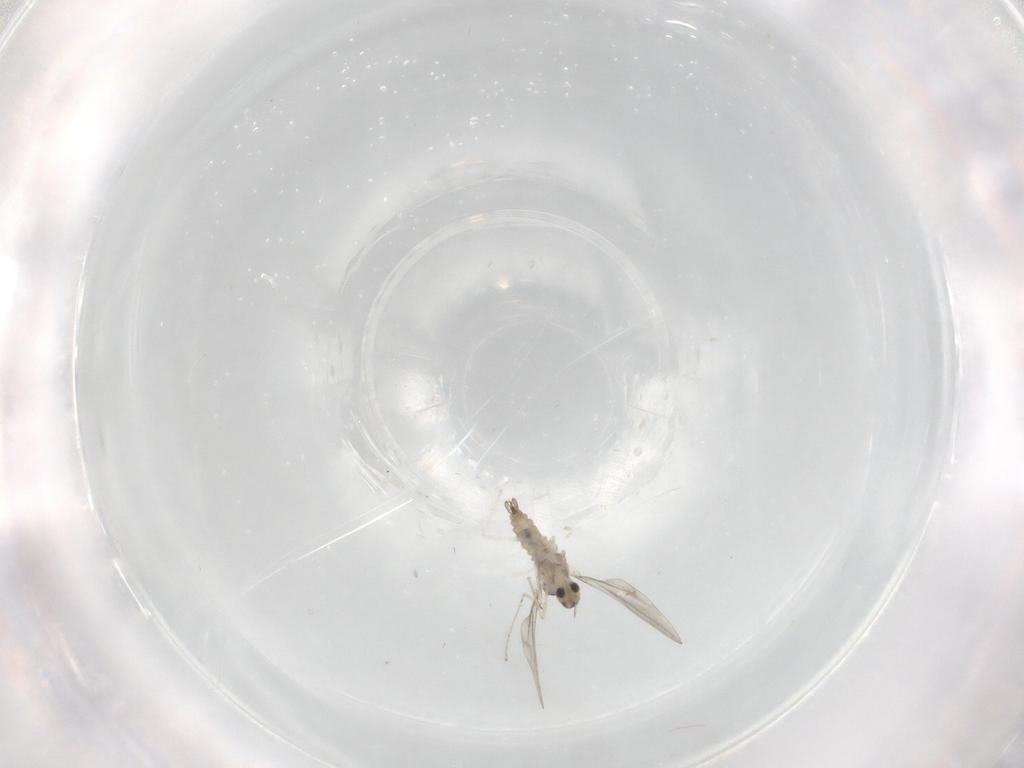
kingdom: Animalia
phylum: Arthropoda
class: Insecta
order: Diptera
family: Cecidomyiidae
